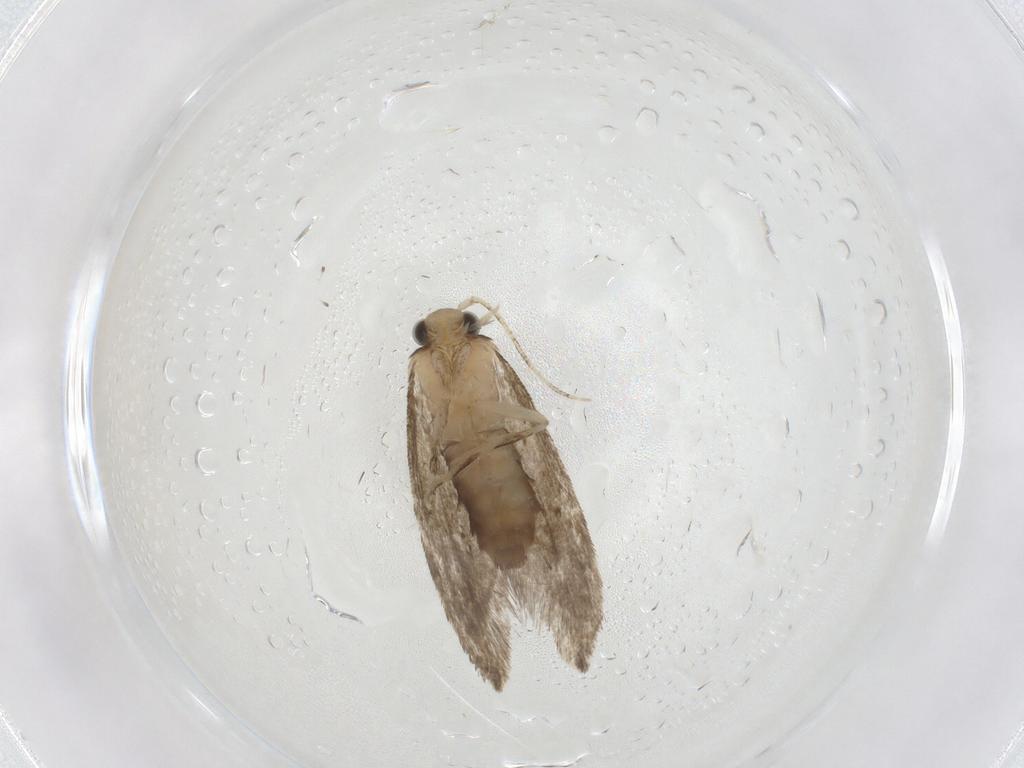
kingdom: Animalia
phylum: Arthropoda
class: Insecta
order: Lepidoptera
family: Tineidae
